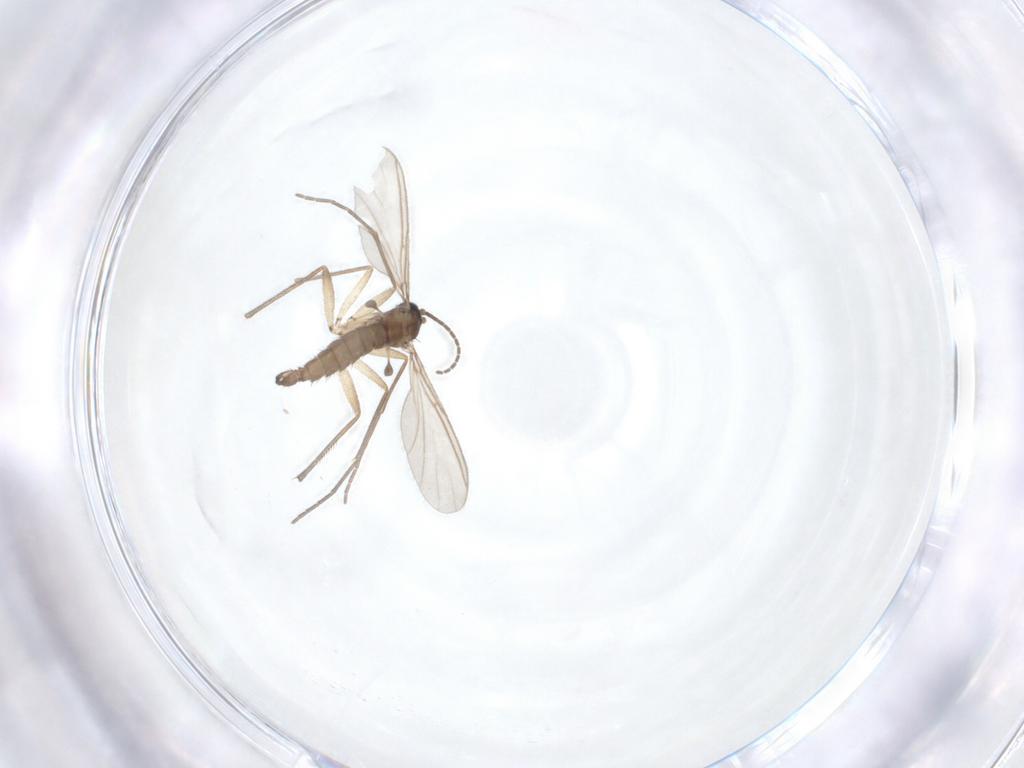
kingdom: Animalia
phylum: Arthropoda
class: Insecta
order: Diptera
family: Sciaridae
